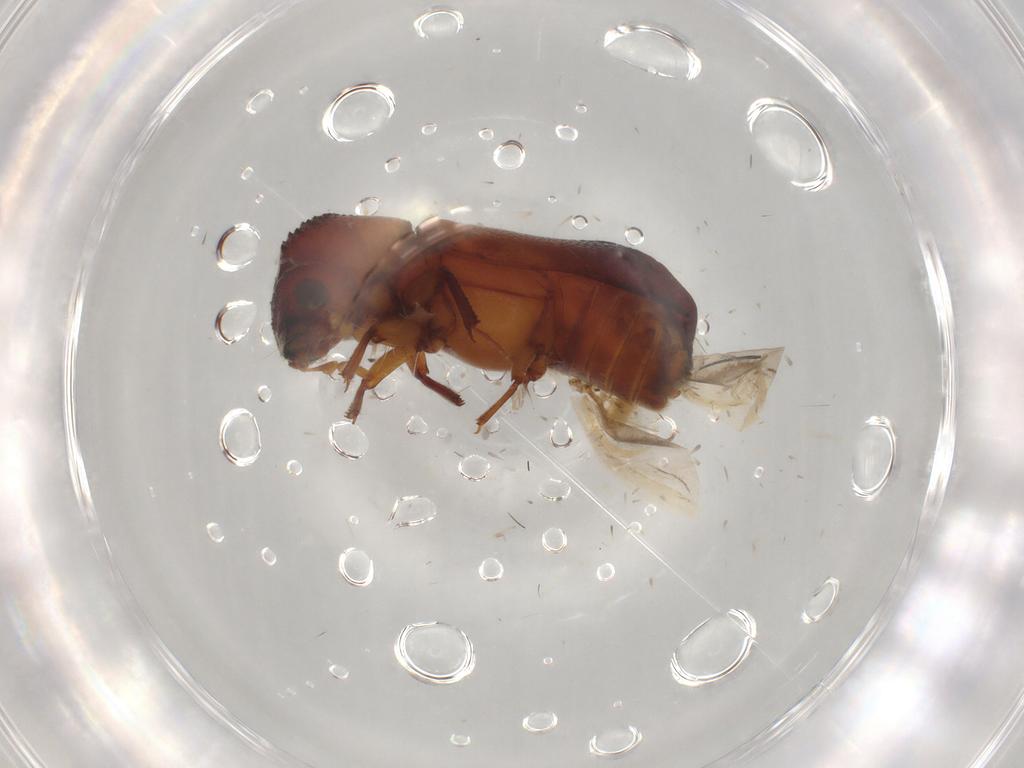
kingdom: Animalia
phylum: Arthropoda
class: Insecta
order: Coleoptera
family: Bostrichidae
